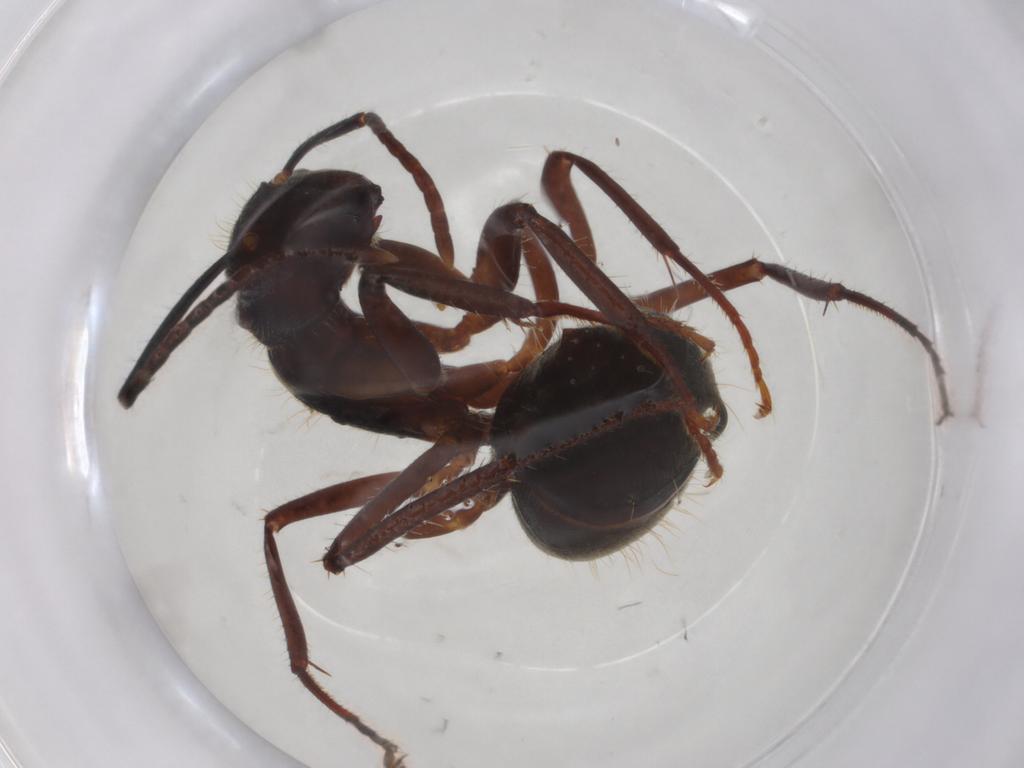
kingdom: Animalia
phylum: Arthropoda
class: Insecta
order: Hymenoptera
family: Formicidae
